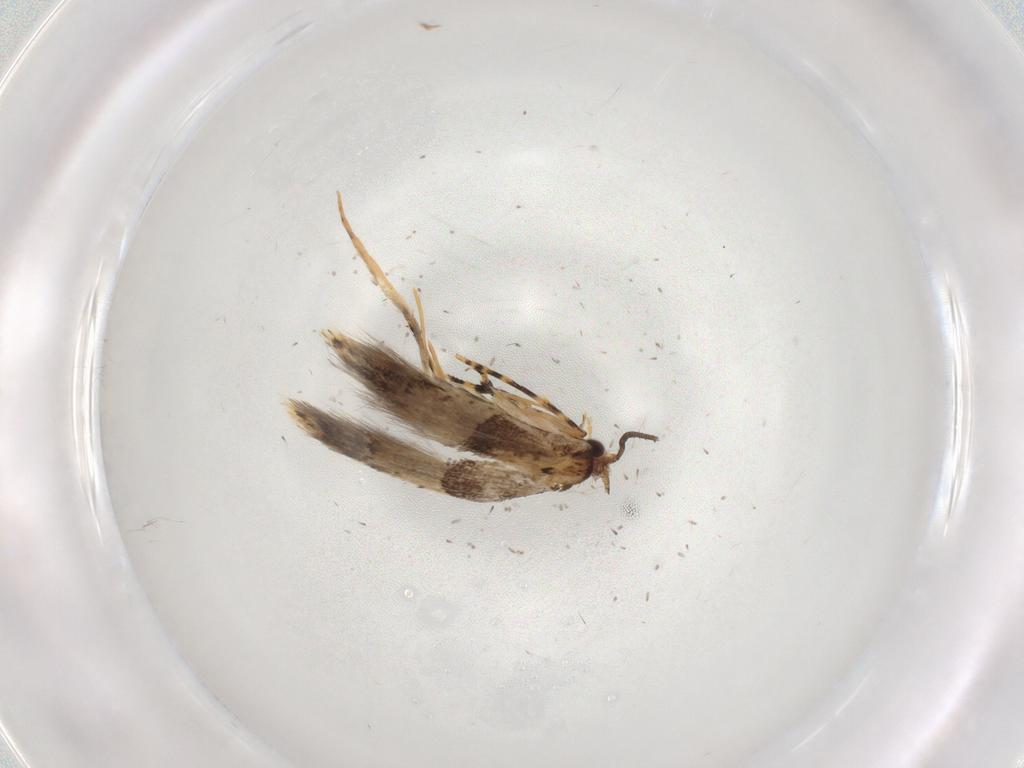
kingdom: Animalia
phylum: Arthropoda
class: Insecta
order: Lepidoptera
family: Tineidae
